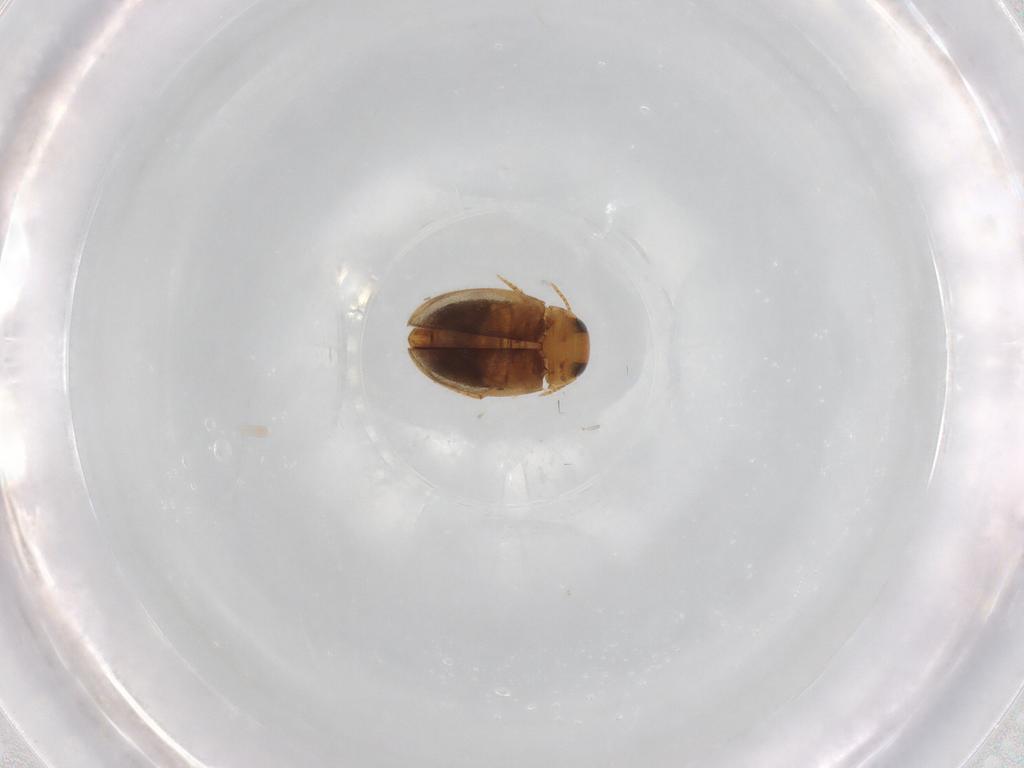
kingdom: Animalia
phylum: Arthropoda
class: Insecta
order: Coleoptera
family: Dytiscidae
